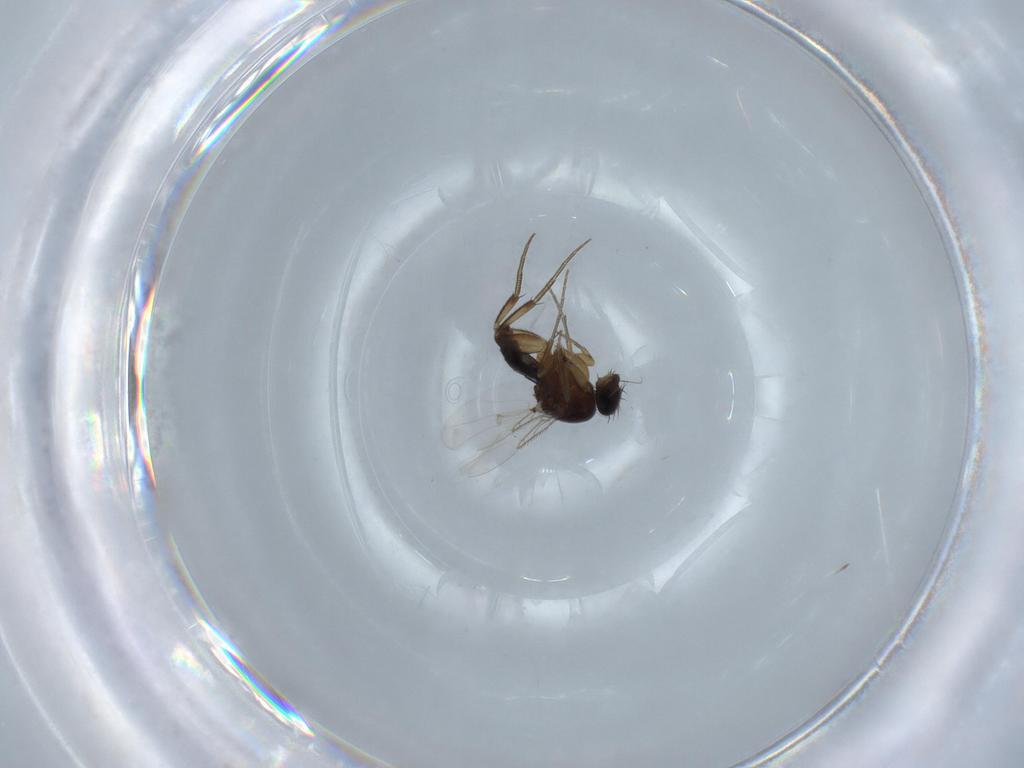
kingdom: Animalia
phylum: Arthropoda
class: Insecta
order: Diptera
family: Phoridae
